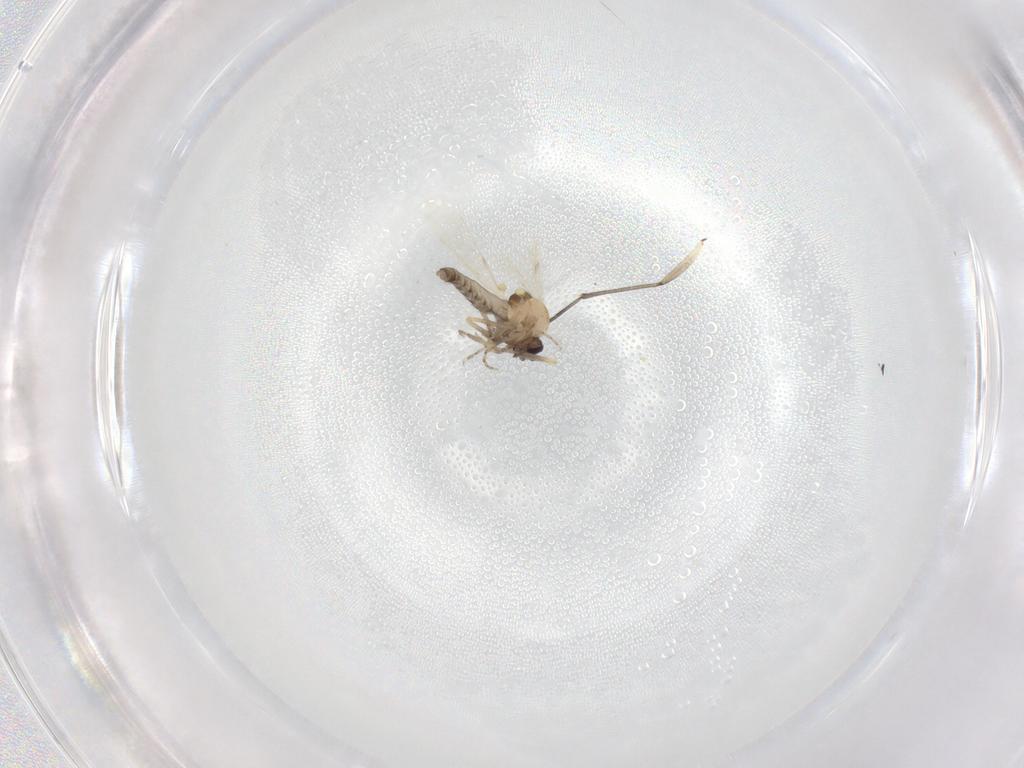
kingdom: Animalia
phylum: Arthropoda
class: Insecta
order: Diptera
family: Ceratopogonidae
